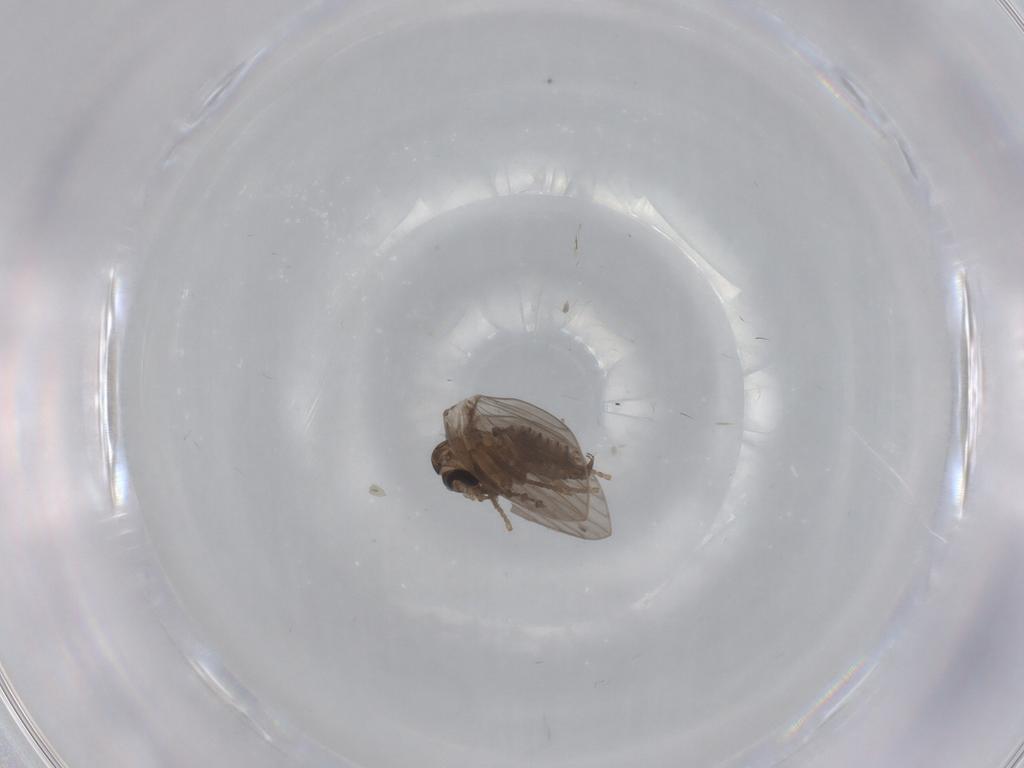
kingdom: Animalia
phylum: Arthropoda
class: Insecta
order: Diptera
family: Psychodidae
